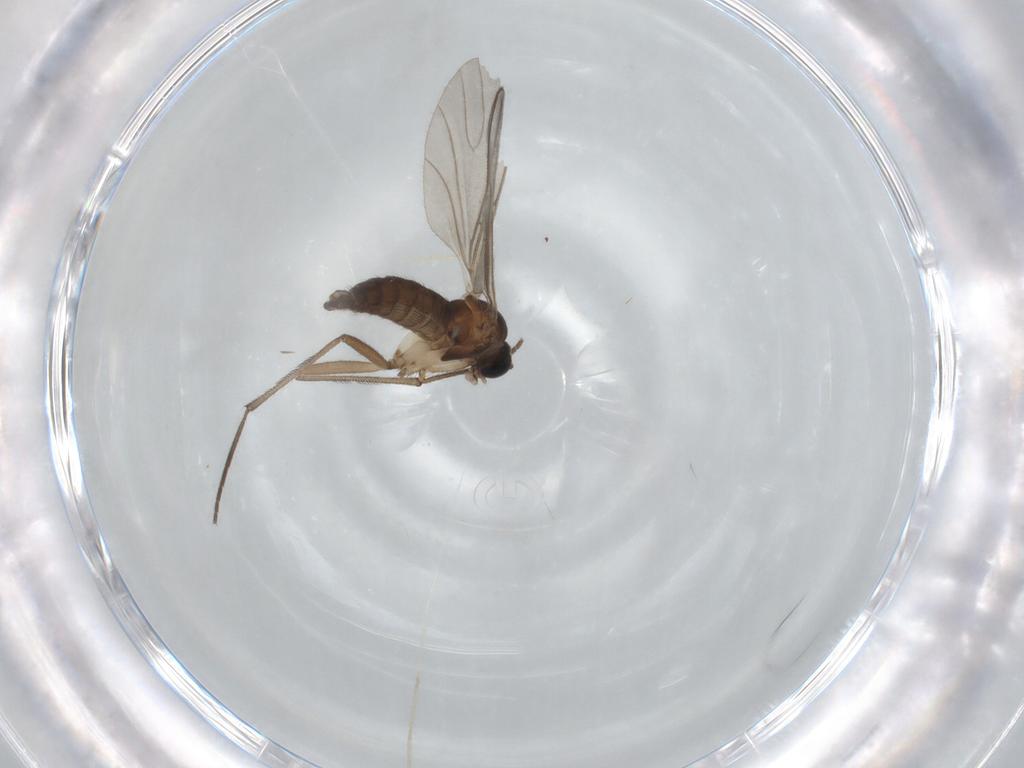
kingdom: Animalia
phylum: Arthropoda
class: Insecta
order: Diptera
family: Sciaridae
